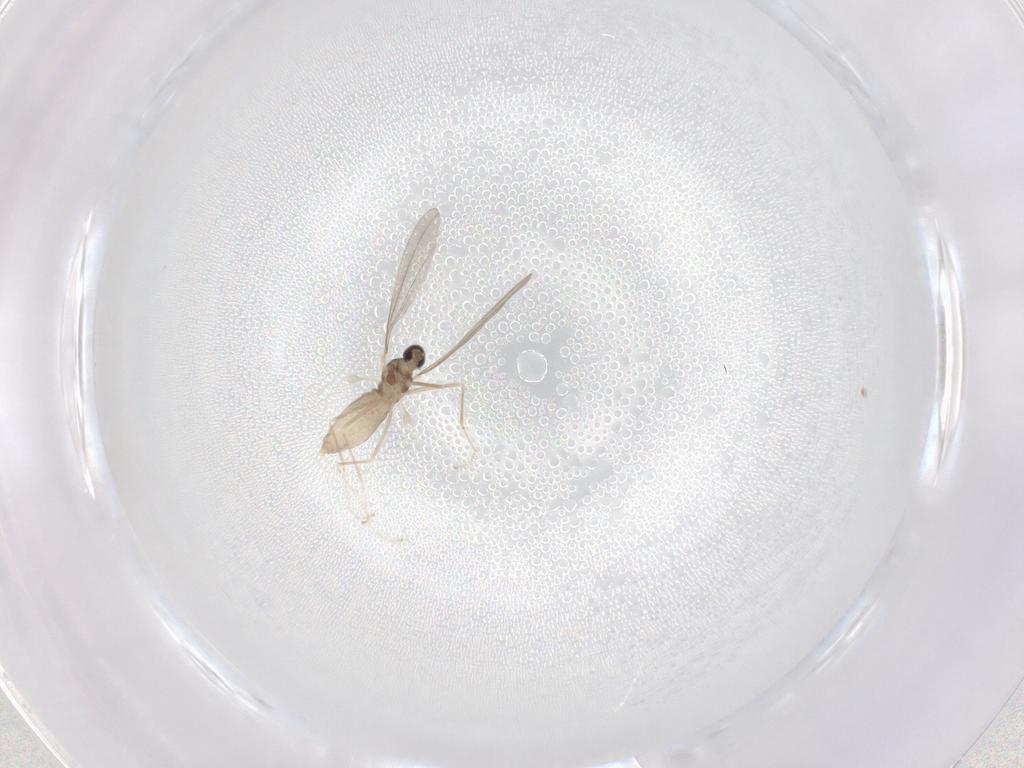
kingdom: Animalia
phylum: Arthropoda
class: Insecta
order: Diptera
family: Cecidomyiidae
